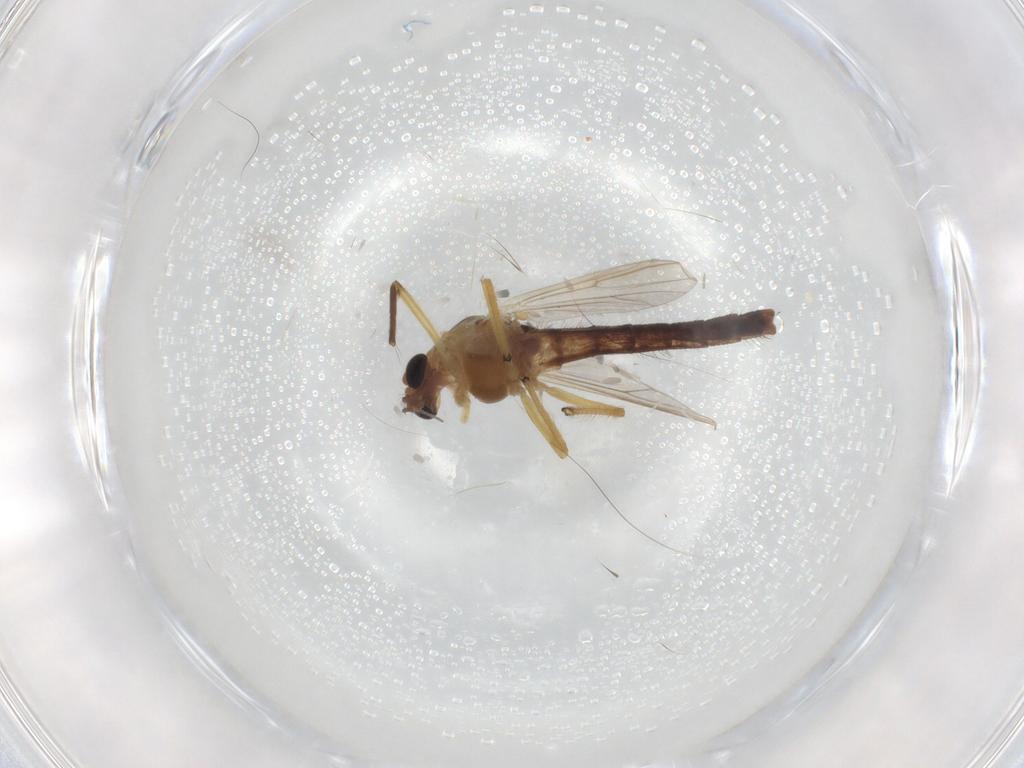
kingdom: Animalia
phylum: Arthropoda
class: Insecta
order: Diptera
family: Chironomidae
